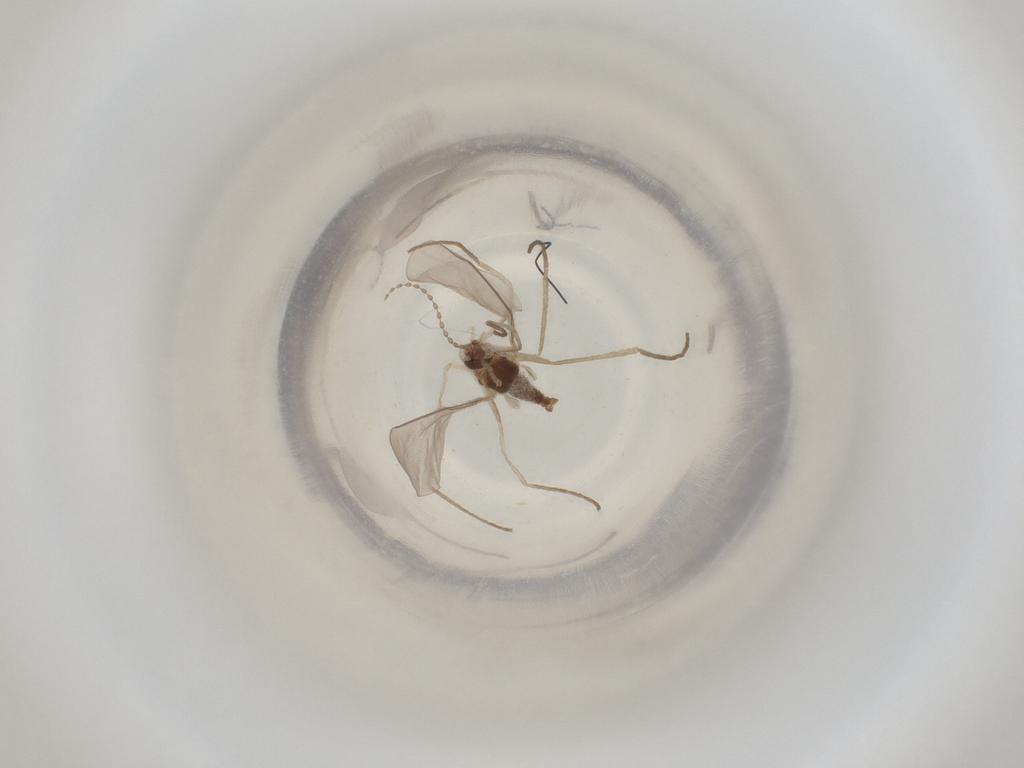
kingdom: Animalia
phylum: Arthropoda
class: Insecta
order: Diptera
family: Cecidomyiidae
